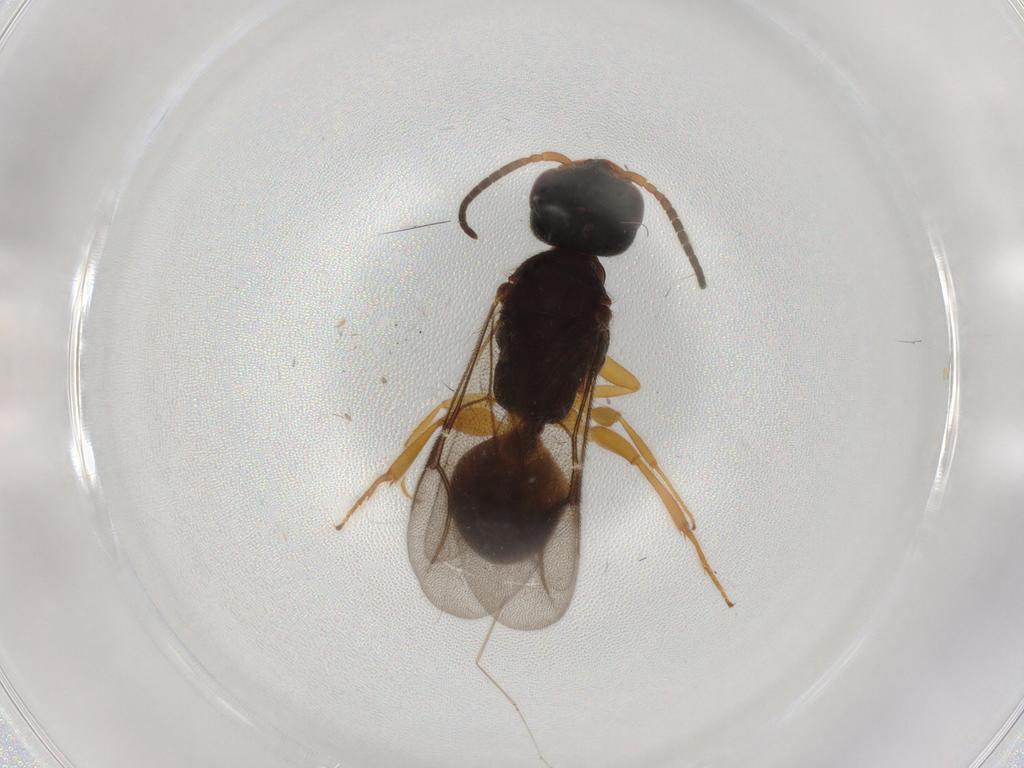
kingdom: Animalia
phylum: Arthropoda
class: Insecta
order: Hymenoptera
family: Bethylidae
